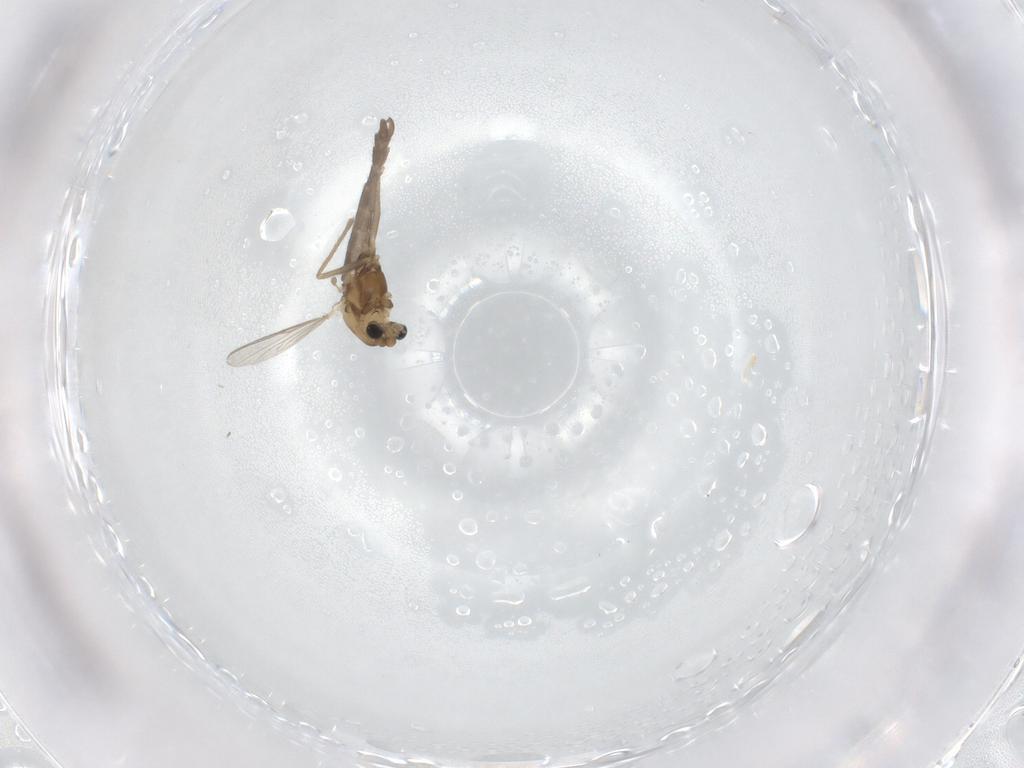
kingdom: Animalia
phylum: Arthropoda
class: Insecta
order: Diptera
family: Chironomidae
